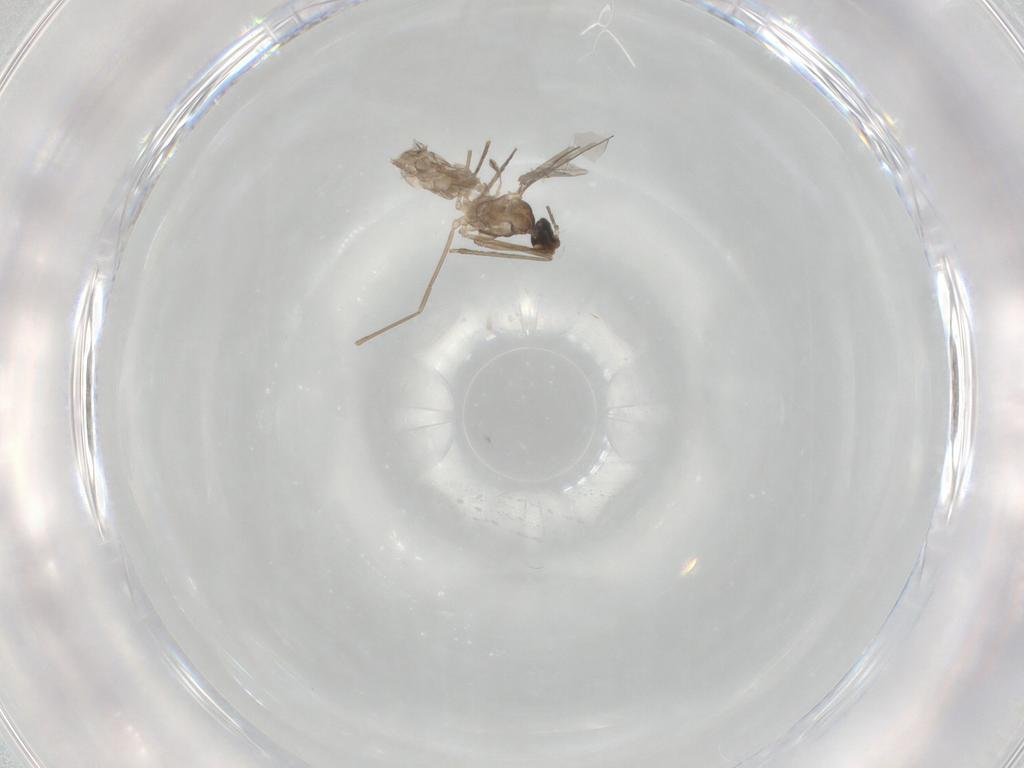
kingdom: Animalia
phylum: Arthropoda
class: Insecta
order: Diptera
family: Cecidomyiidae
